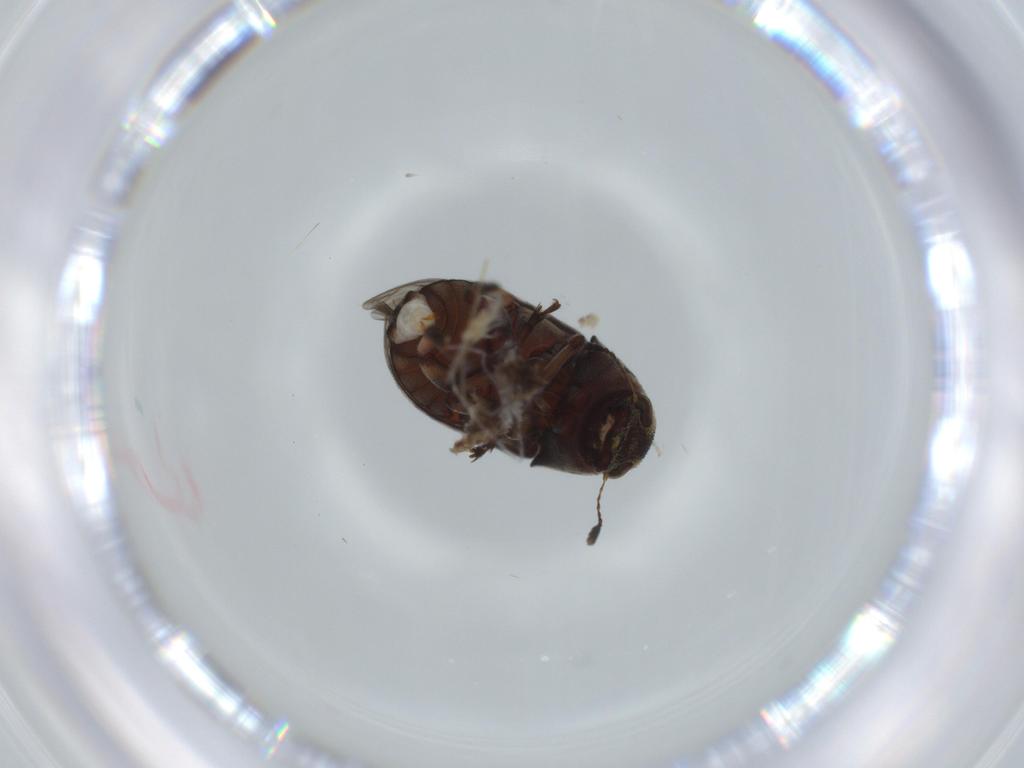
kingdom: Animalia
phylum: Arthropoda
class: Insecta
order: Coleoptera
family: Anthribidae
